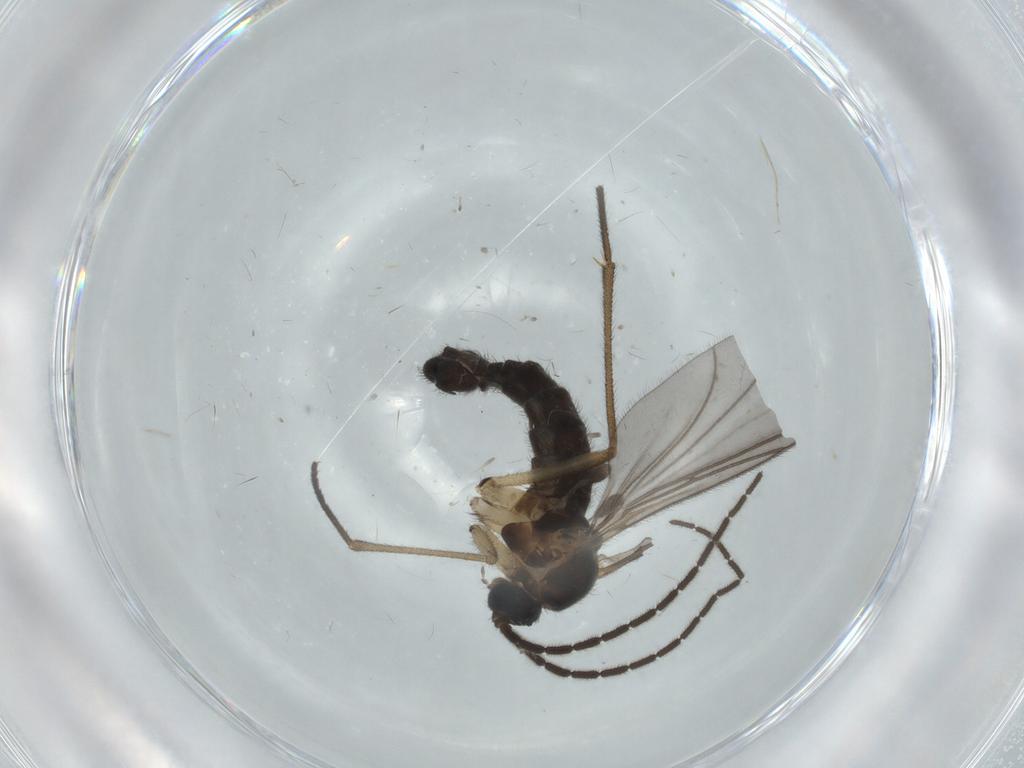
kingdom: Animalia
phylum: Arthropoda
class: Insecta
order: Diptera
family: Sciaridae
